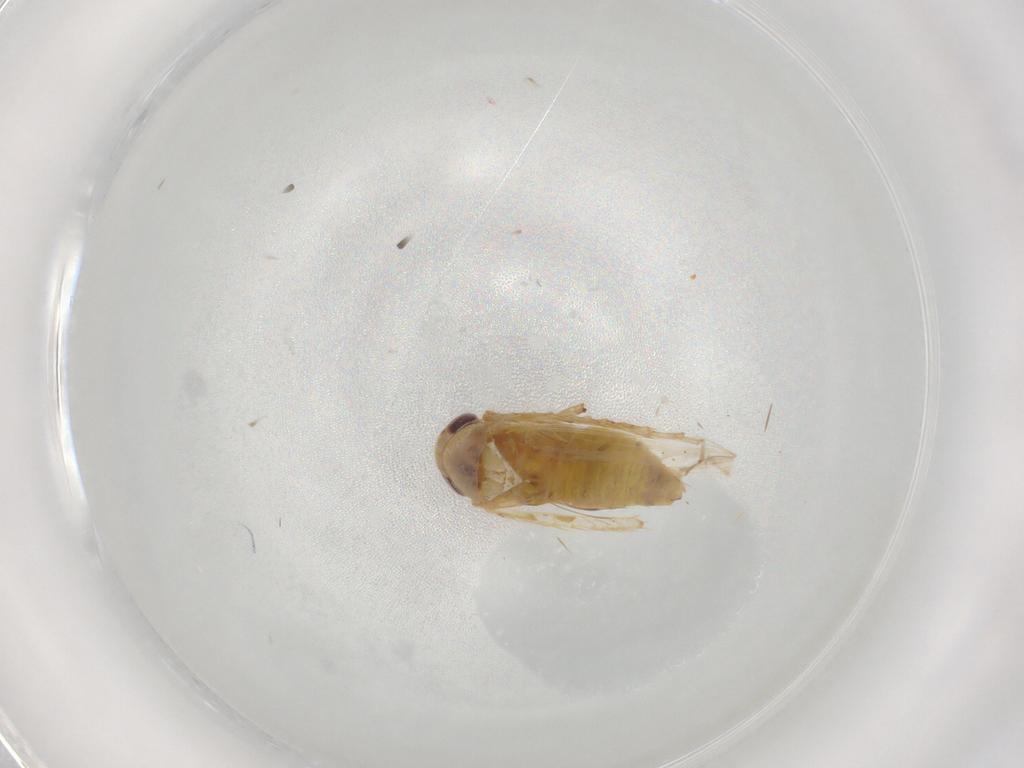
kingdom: Animalia
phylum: Arthropoda
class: Insecta
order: Hemiptera
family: Cicadellidae
